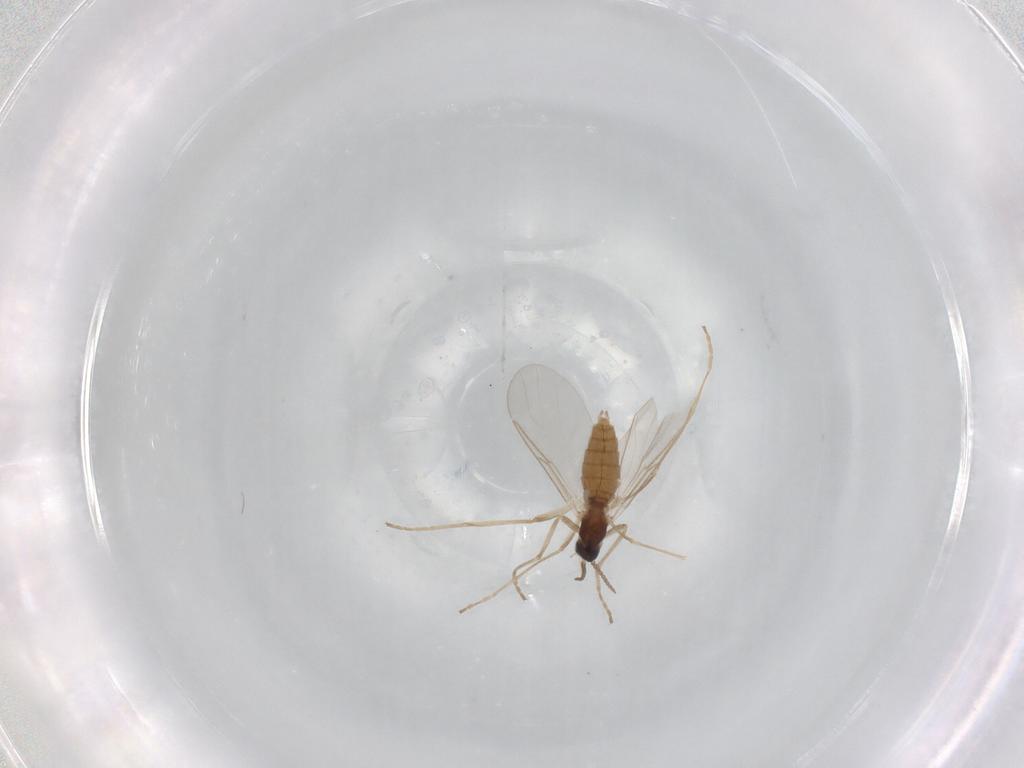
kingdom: Animalia
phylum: Arthropoda
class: Insecta
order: Diptera
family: Cecidomyiidae
